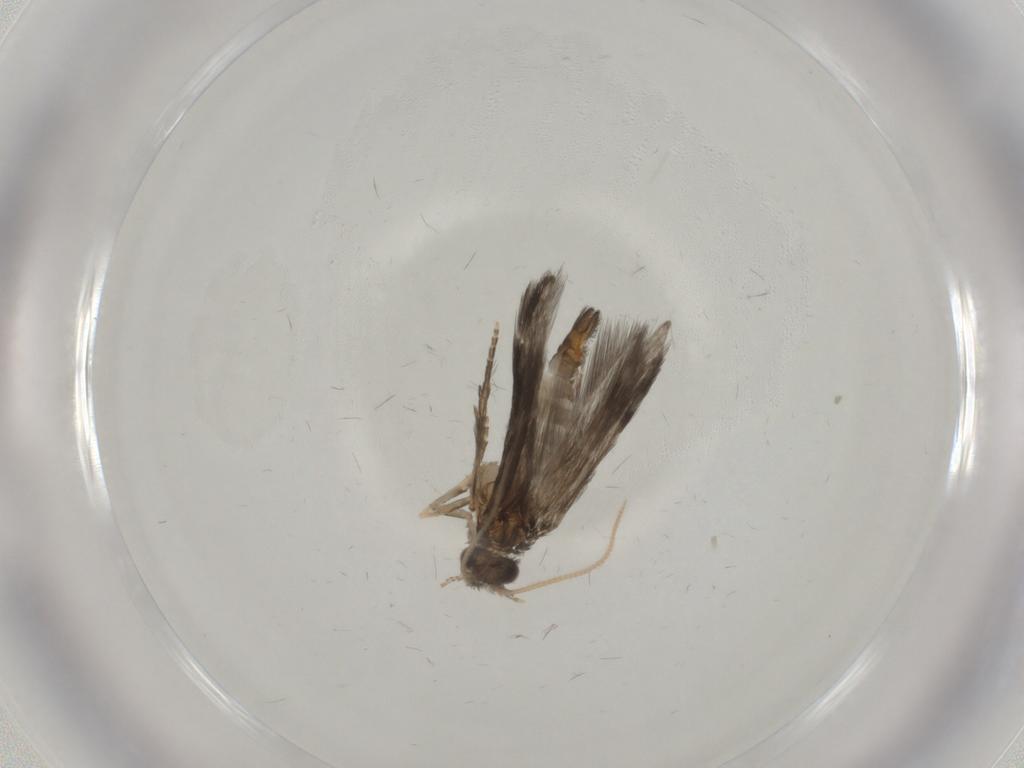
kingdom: Animalia
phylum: Arthropoda
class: Insecta
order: Trichoptera
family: Hydroptilidae
